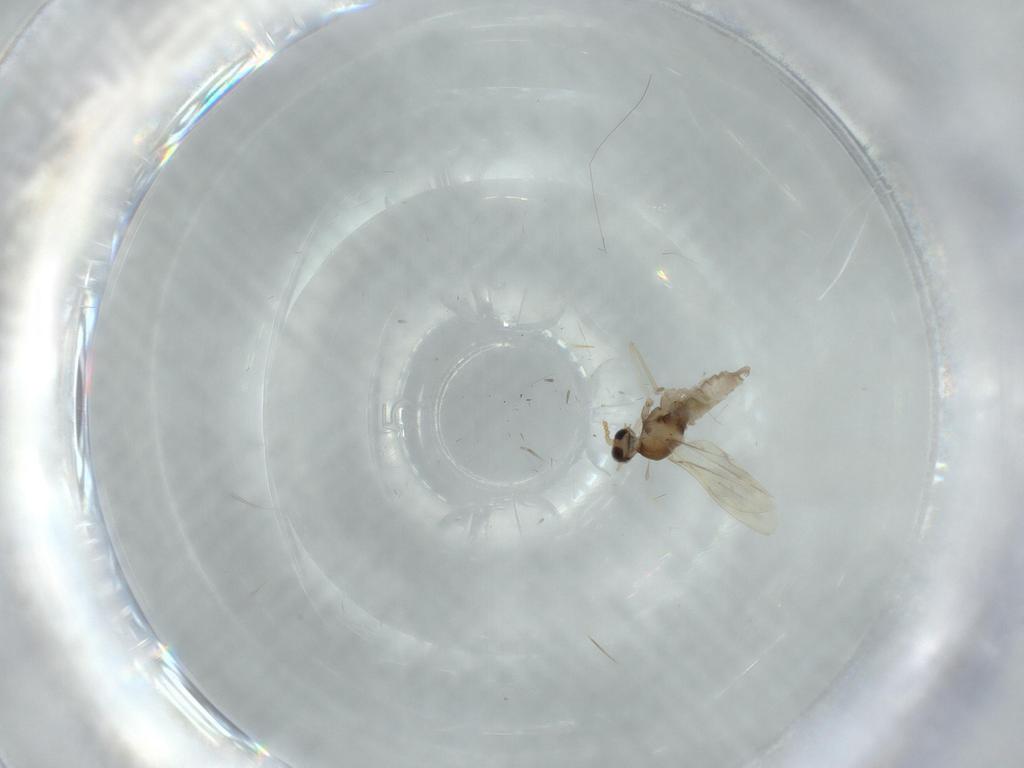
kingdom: Animalia
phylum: Arthropoda
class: Insecta
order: Diptera
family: Cecidomyiidae
